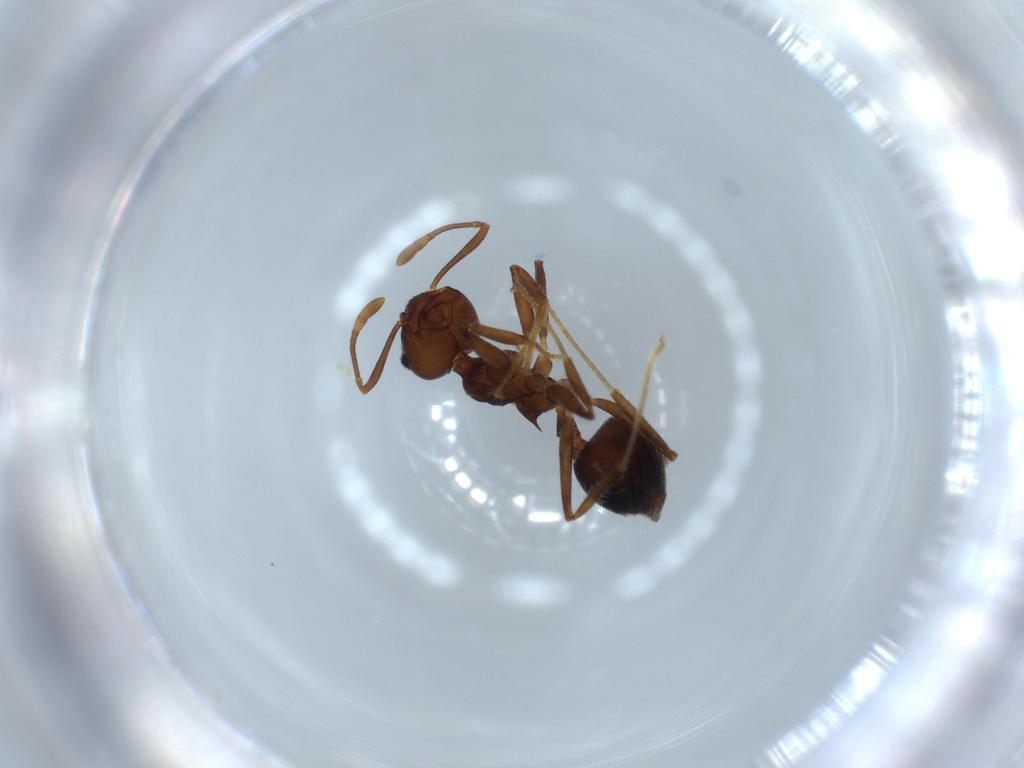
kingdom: Animalia
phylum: Arthropoda
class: Insecta
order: Hymenoptera
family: Formicidae
